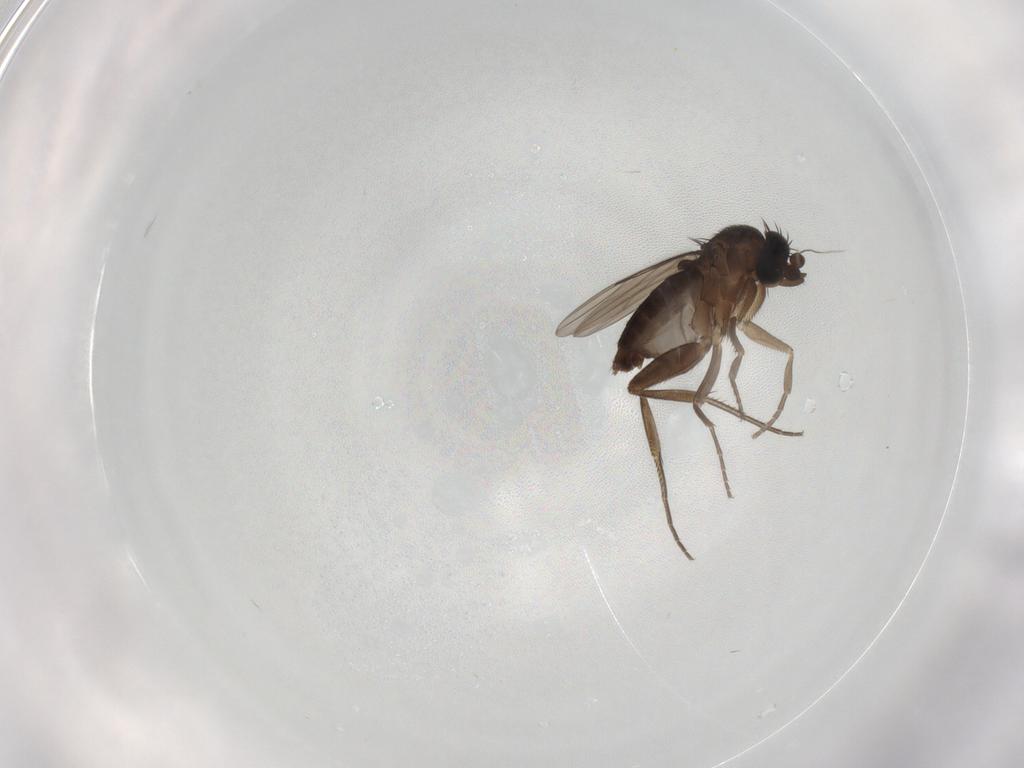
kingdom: Animalia
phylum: Arthropoda
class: Insecta
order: Diptera
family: Phoridae
